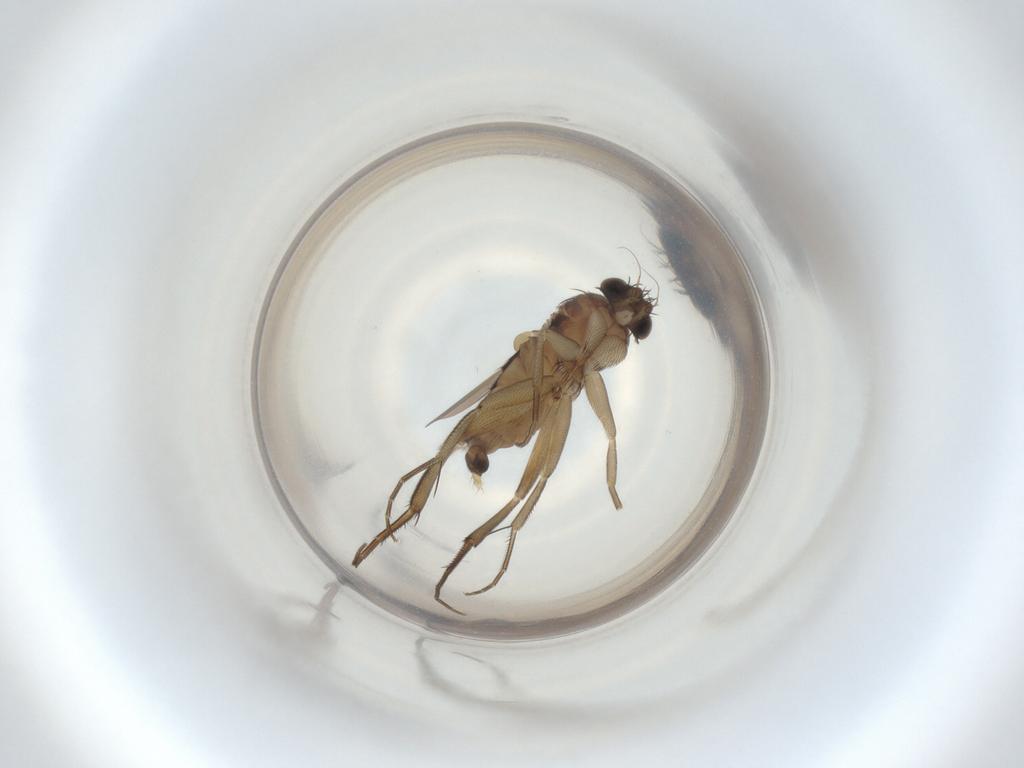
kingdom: Animalia
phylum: Arthropoda
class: Insecta
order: Diptera
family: Phoridae
